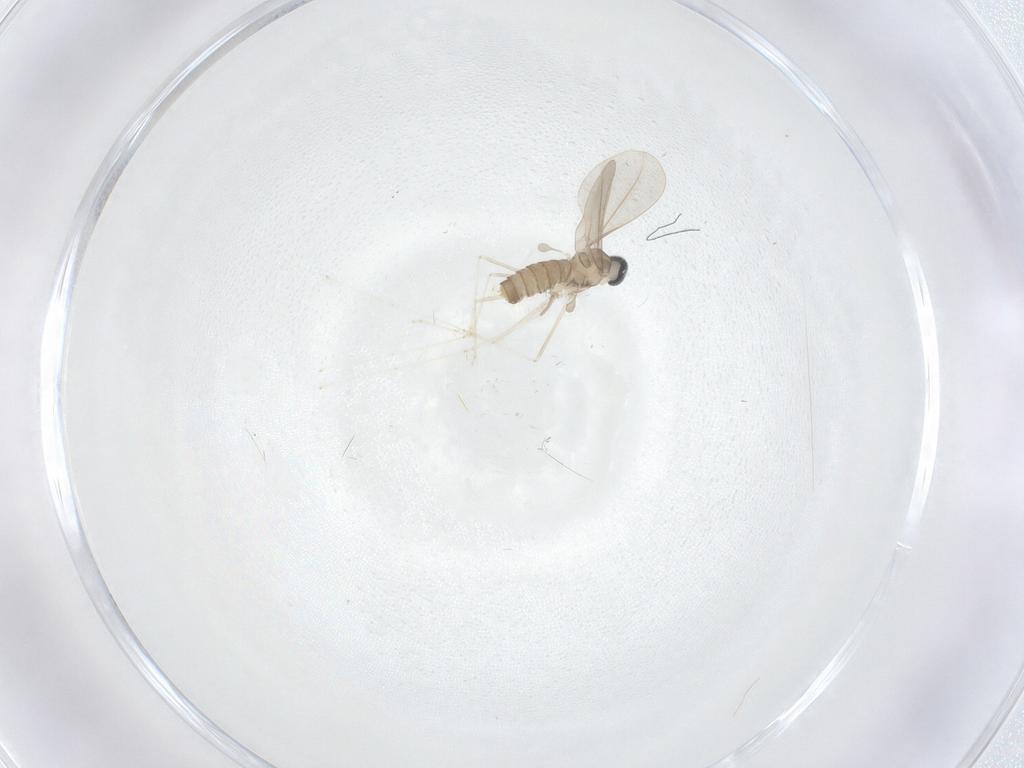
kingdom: Animalia
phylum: Arthropoda
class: Insecta
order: Diptera
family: Cecidomyiidae
